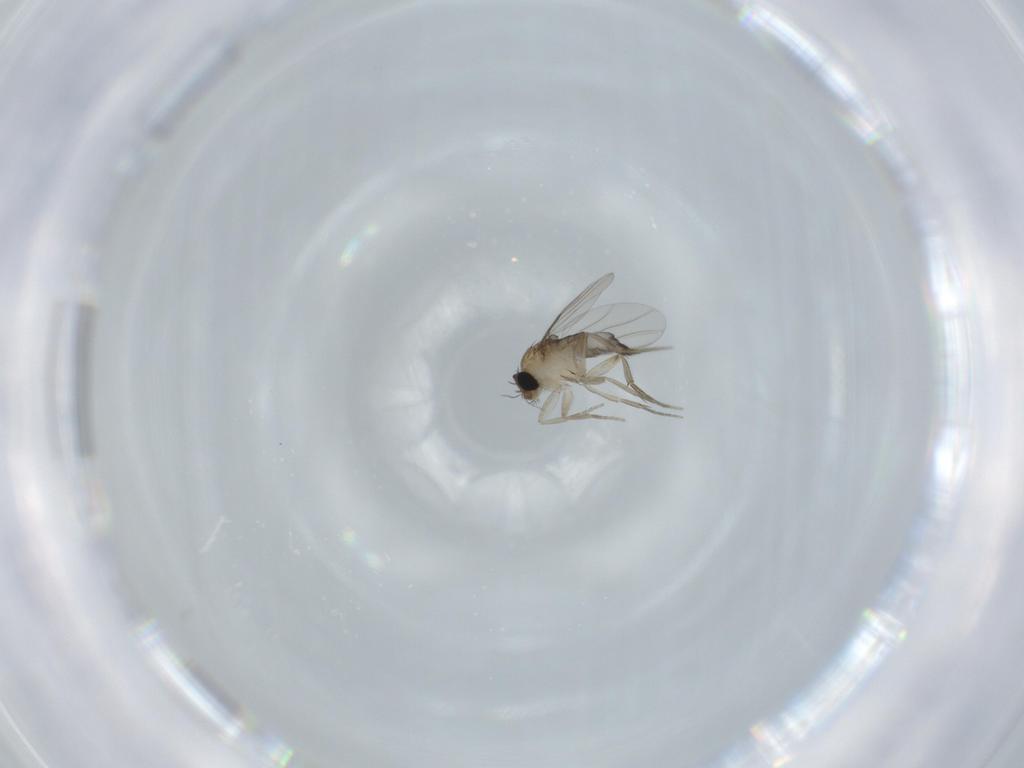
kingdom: Animalia
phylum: Arthropoda
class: Insecta
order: Diptera
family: Phoridae
